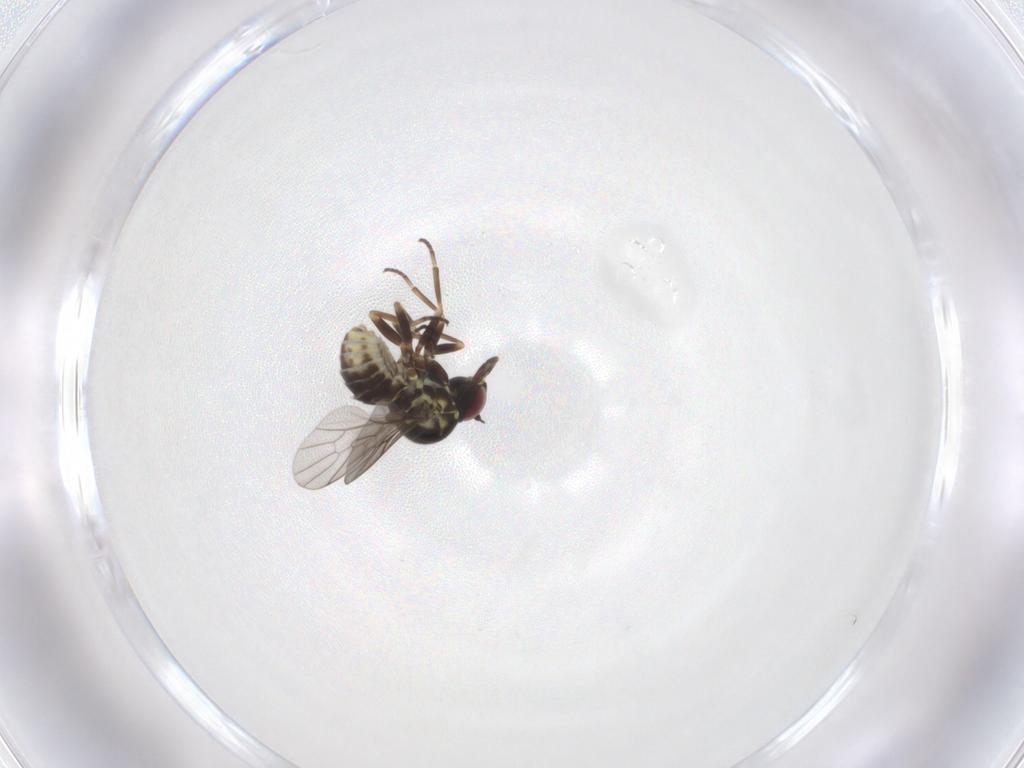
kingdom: Animalia
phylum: Arthropoda
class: Insecta
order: Diptera
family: Bombyliidae
